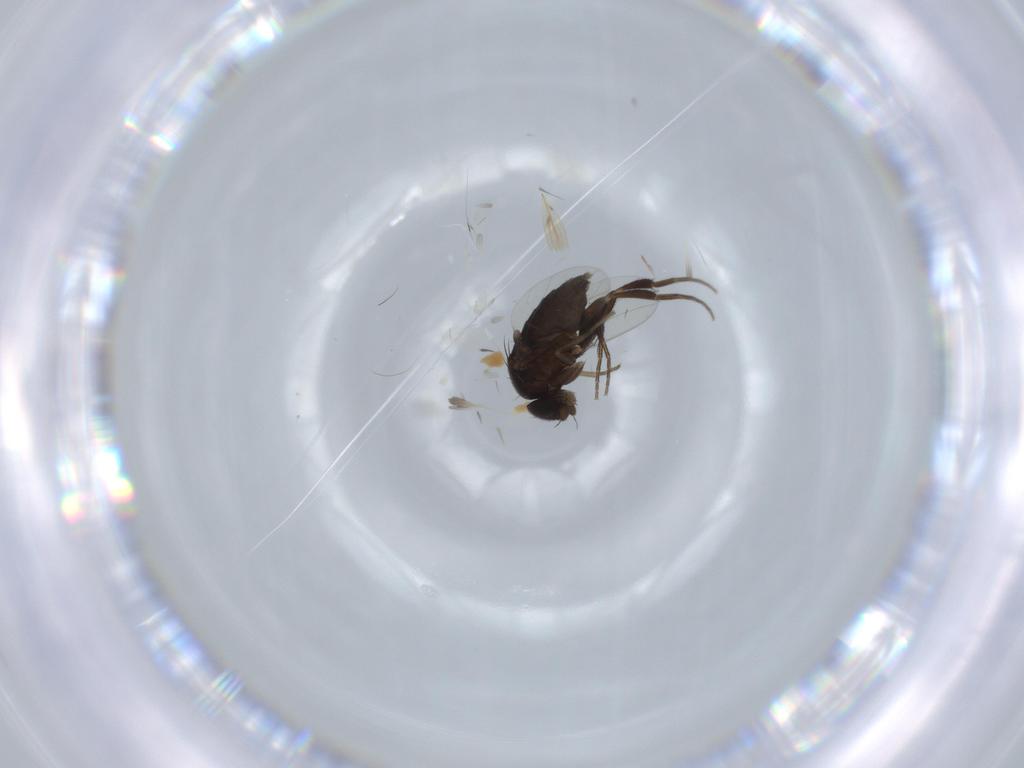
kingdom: Animalia
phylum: Arthropoda
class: Insecta
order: Diptera
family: Phoridae
